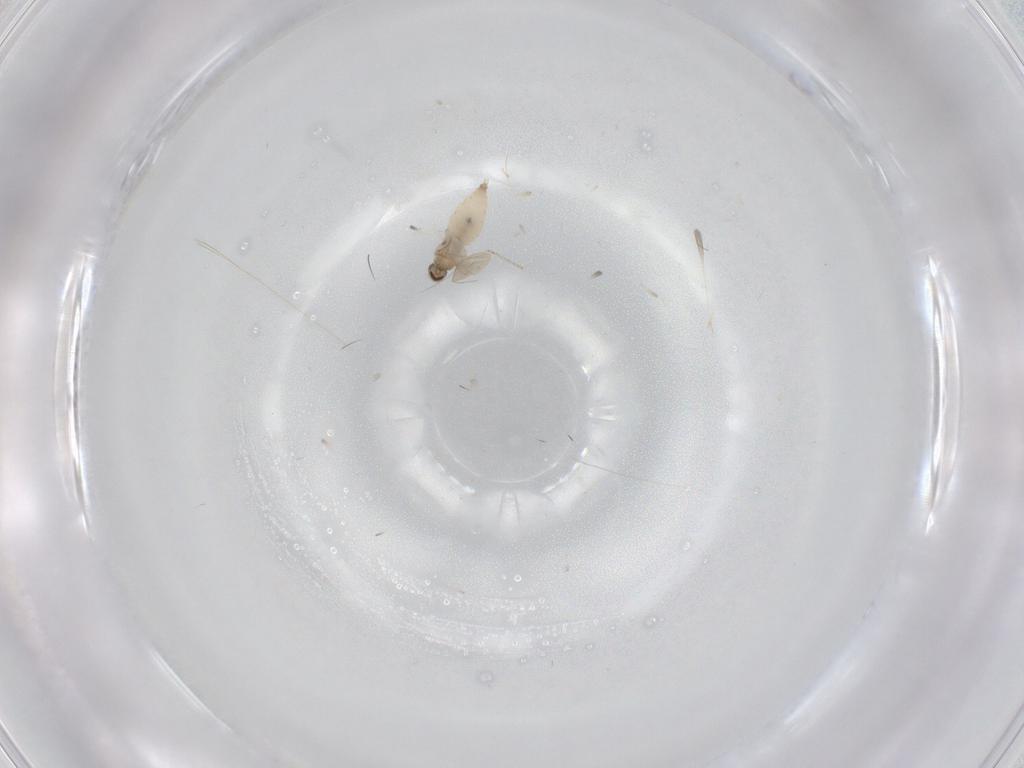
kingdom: Animalia
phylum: Arthropoda
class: Insecta
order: Diptera
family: Cecidomyiidae
